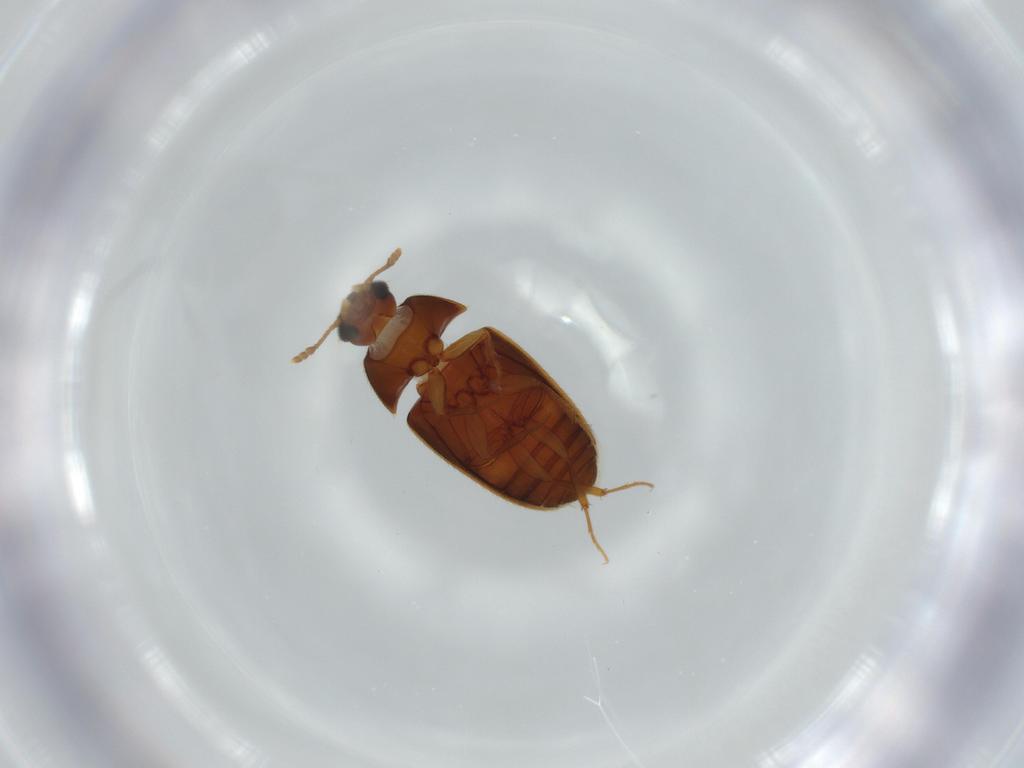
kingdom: Animalia
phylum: Arthropoda
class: Insecta
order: Coleoptera
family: Mycetophagidae
